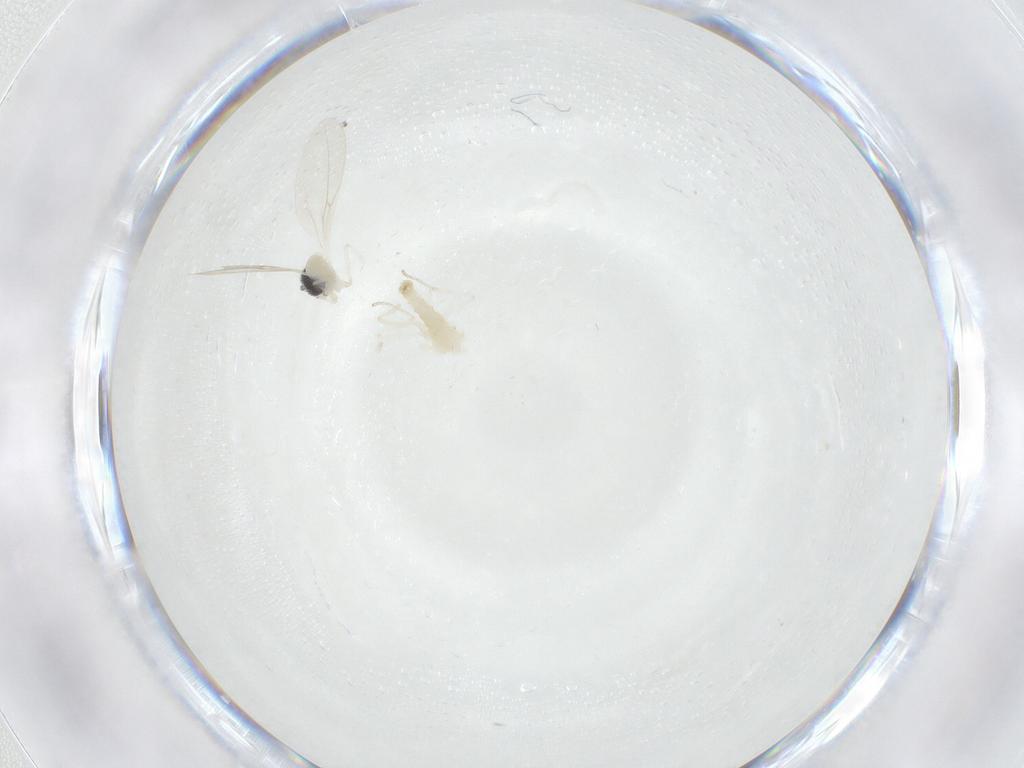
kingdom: Animalia
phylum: Arthropoda
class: Insecta
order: Diptera
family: Cecidomyiidae
